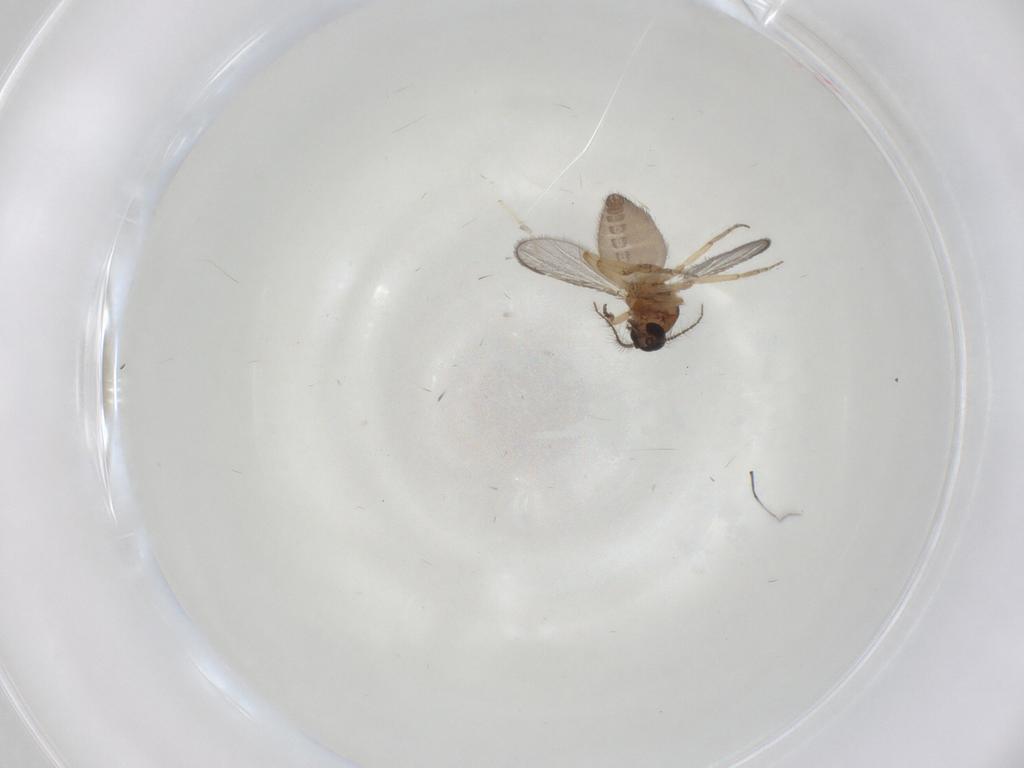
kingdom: Animalia
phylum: Arthropoda
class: Insecta
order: Diptera
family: Ceratopogonidae
